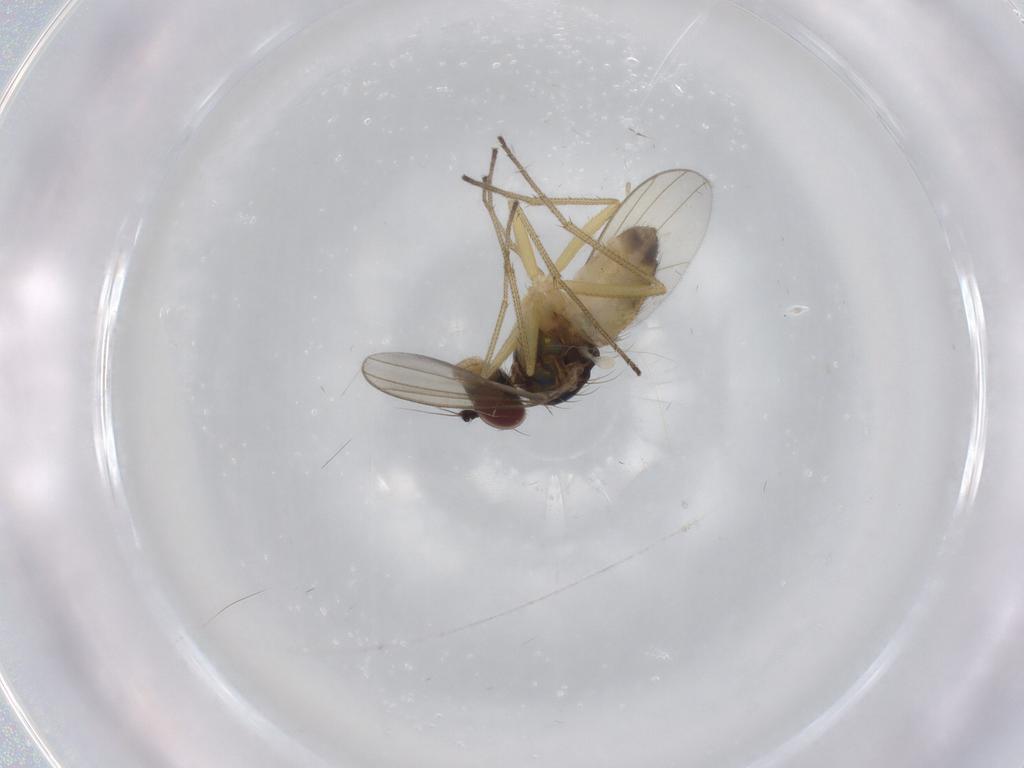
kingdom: Animalia
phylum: Arthropoda
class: Insecta
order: Diptera
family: Dolichopodidae
